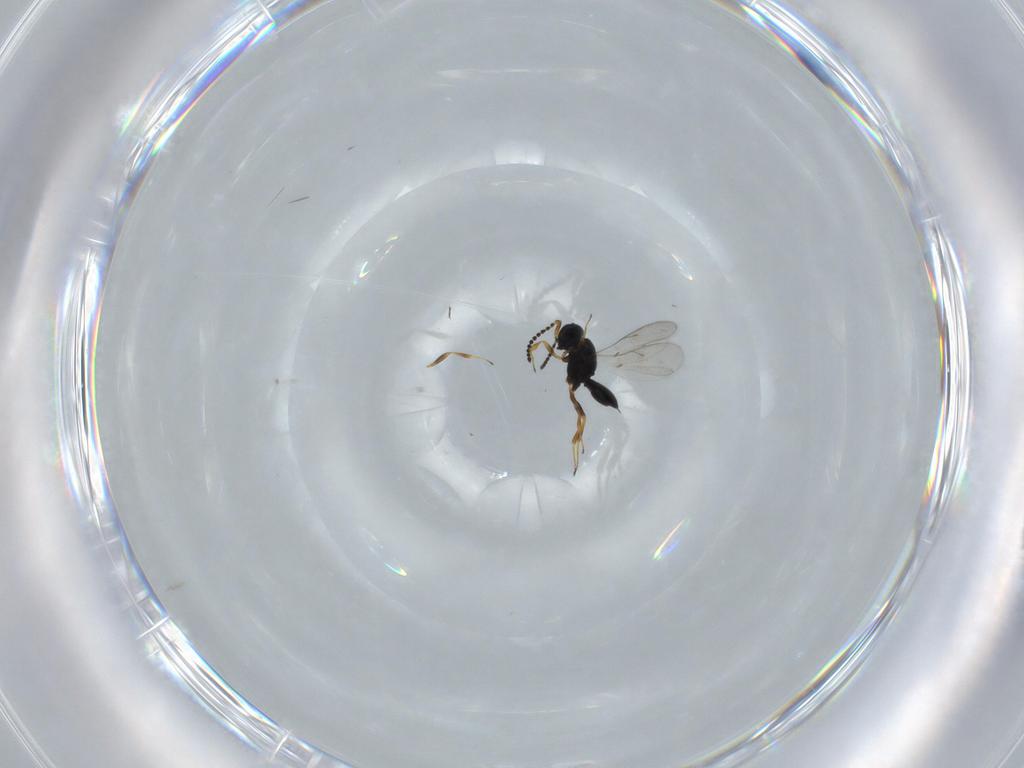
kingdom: Animalia
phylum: Arthropoda
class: Insecta
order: Hymenoptera
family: Scelionidae
